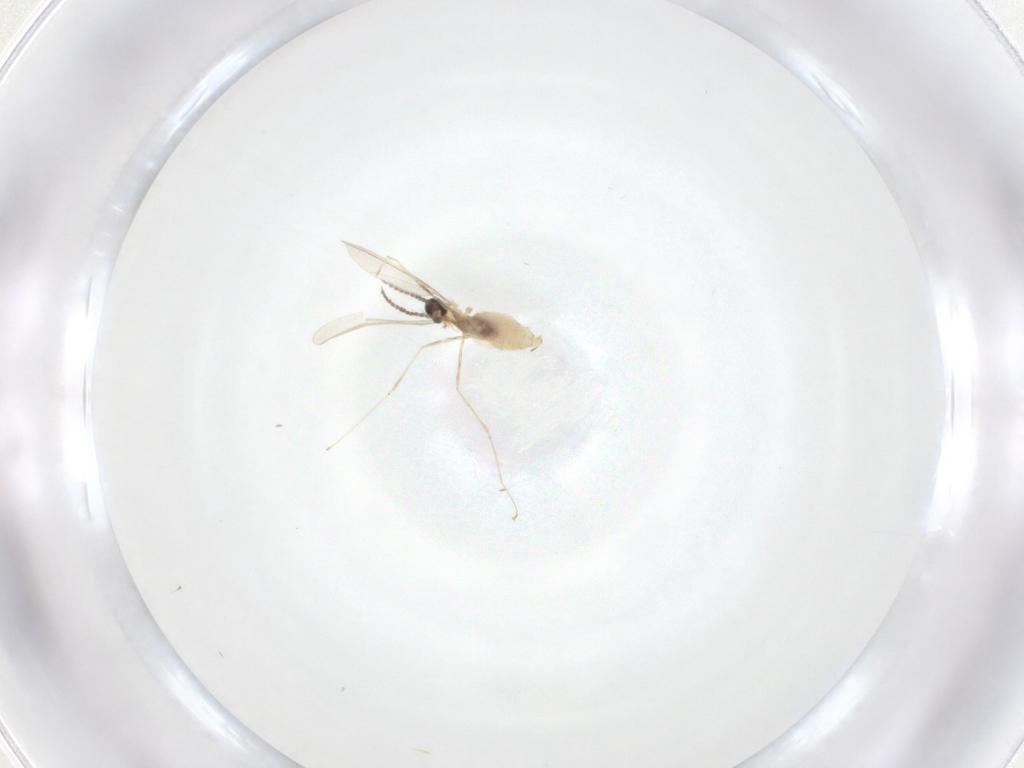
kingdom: Animalia
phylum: Arthropoda
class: Insecta
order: Diptera
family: Cecidomyiidae
